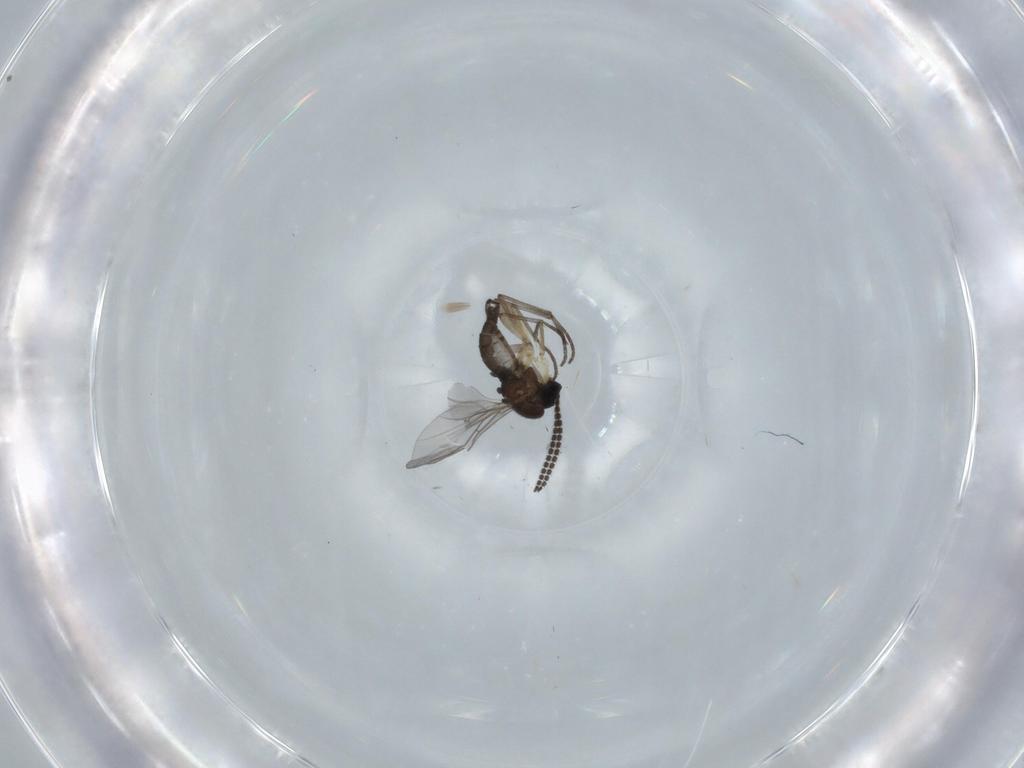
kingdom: Animalia
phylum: Arthropoda
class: Insecta
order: Diptera
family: Sciaridae
